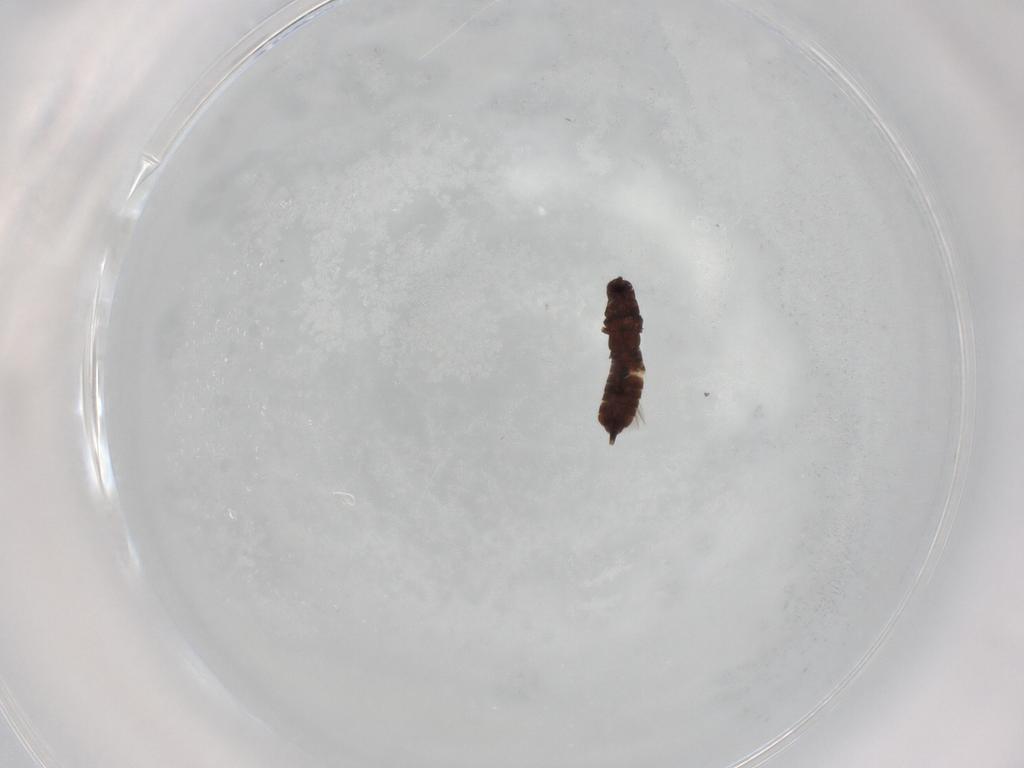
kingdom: Animalia
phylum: Arthropoda
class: Insecta
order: Thysanoptera
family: Phlaeothripidae
